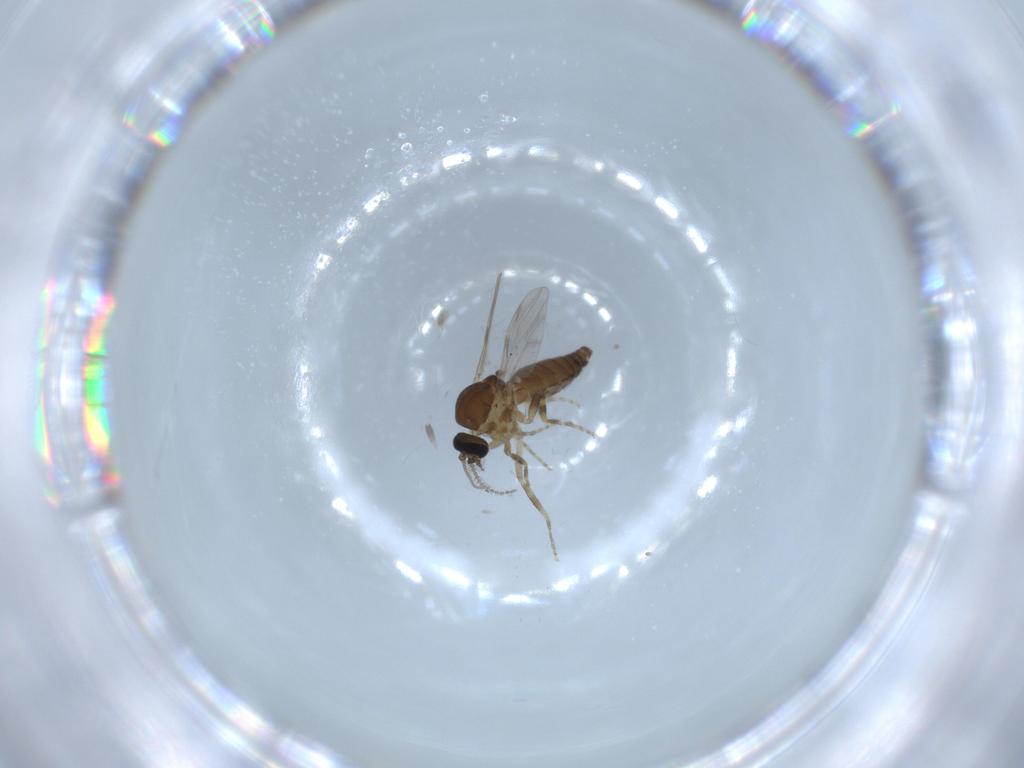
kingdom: Animalia
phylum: Arthropoda
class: Insecta
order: Diptera
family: Ceratopogonidae
